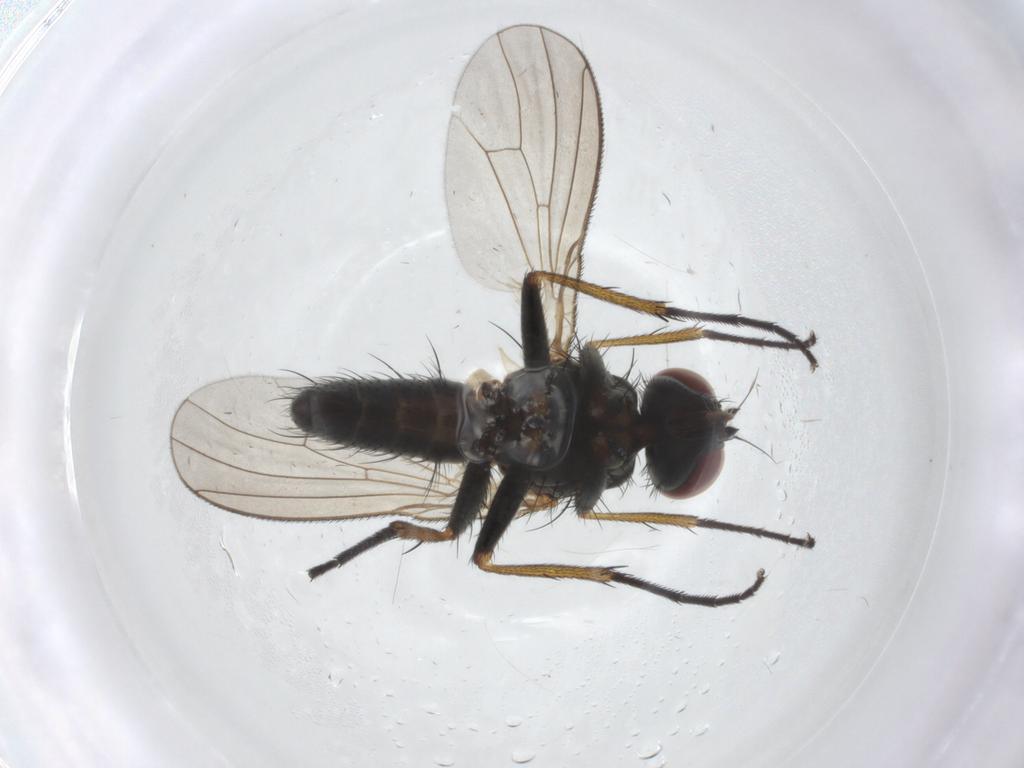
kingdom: Animalia
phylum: Arthropoda
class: Insecta
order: Diptera
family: Muscidae
